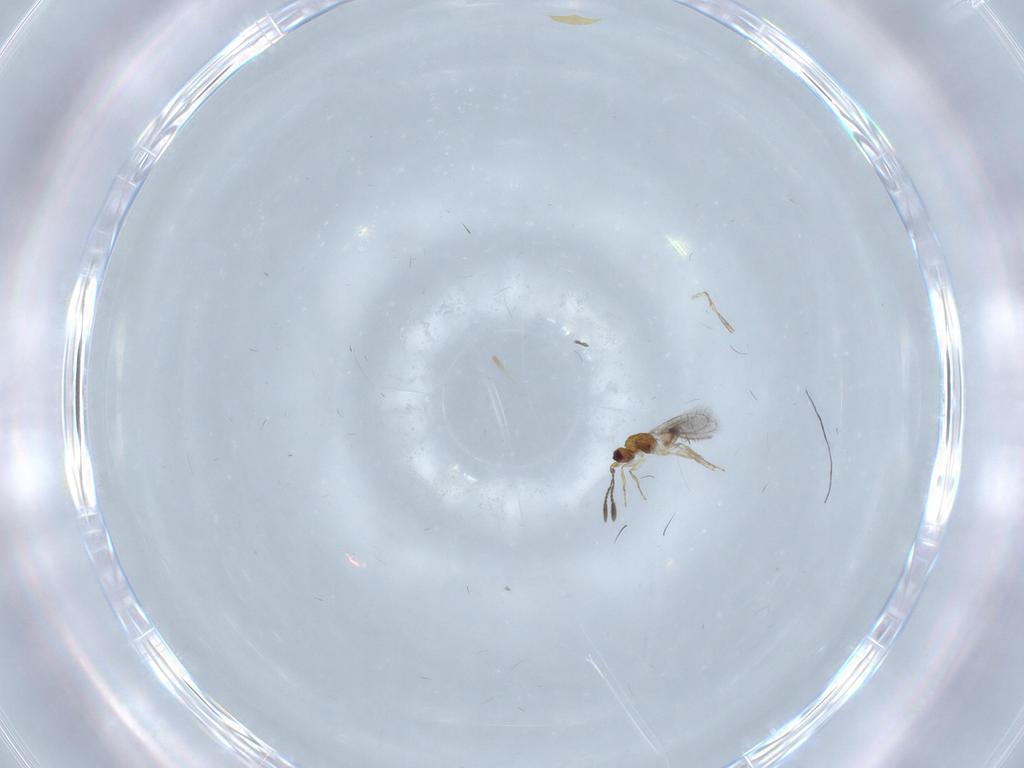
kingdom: Animalia
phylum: Arthropoda
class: Insecta
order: Hymenoptera
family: Mymaridae
